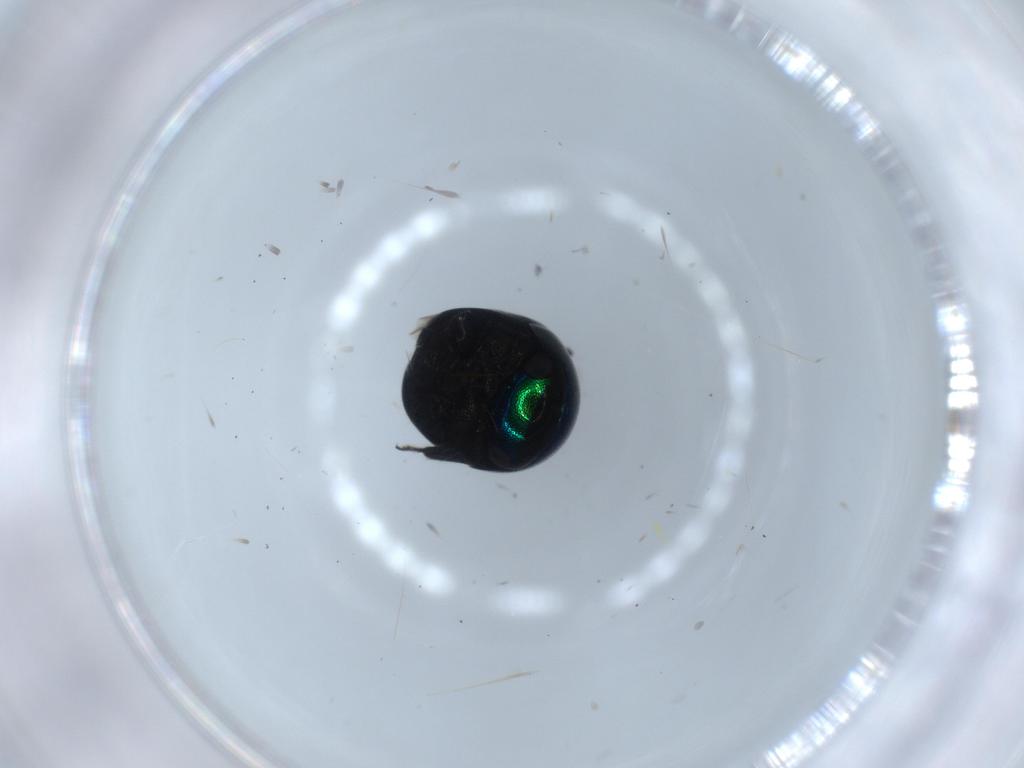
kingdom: Animalia
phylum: Arthropoda
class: Insecta
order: Coleoptera
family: Cybocephalidae
